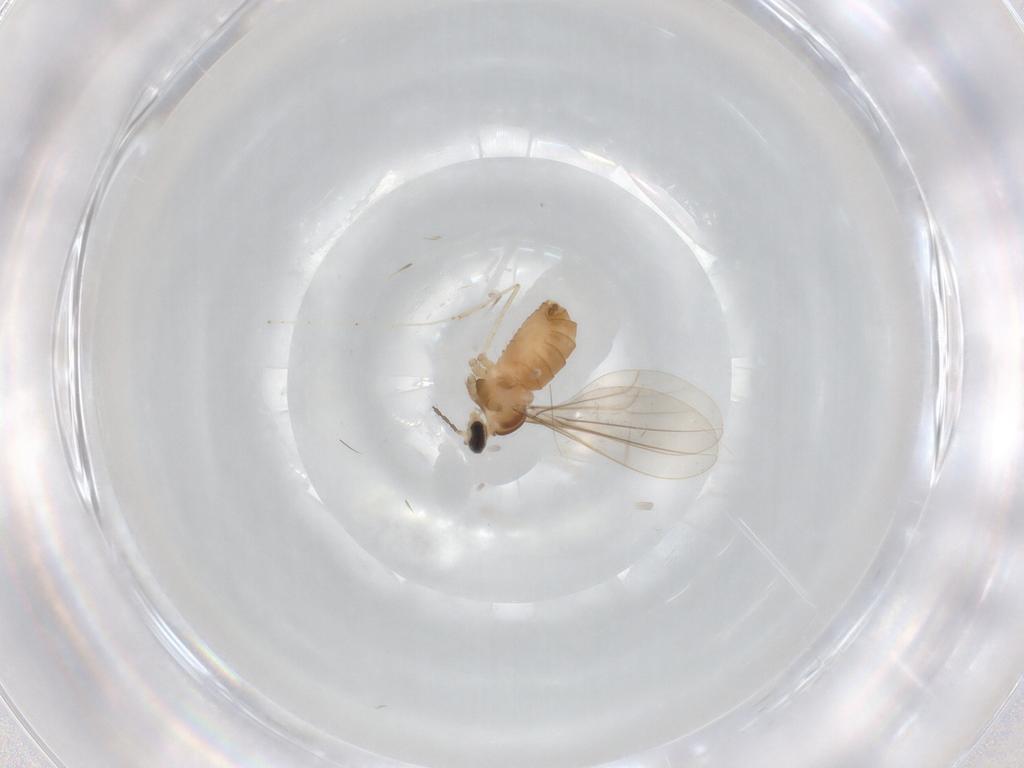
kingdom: Animalia
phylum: Arthropoda
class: Insecta
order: Diptera
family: Cecidomyiidae
